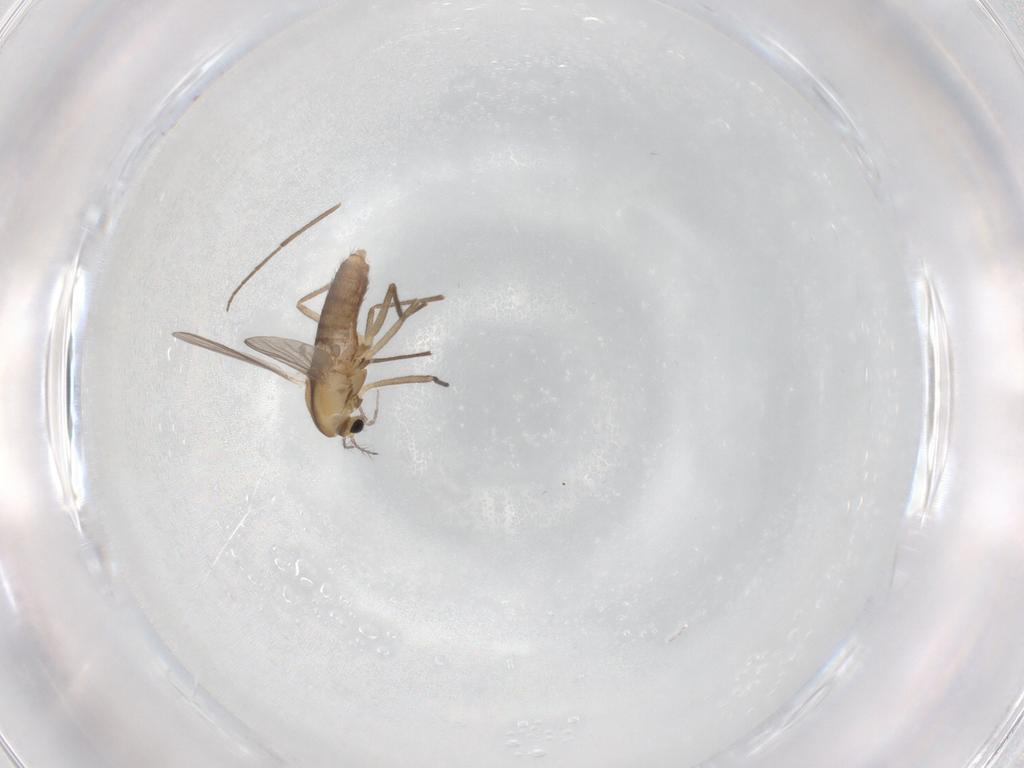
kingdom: Animalia
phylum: Arthropoda
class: Insecta
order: Diptera
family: Chironomidae
